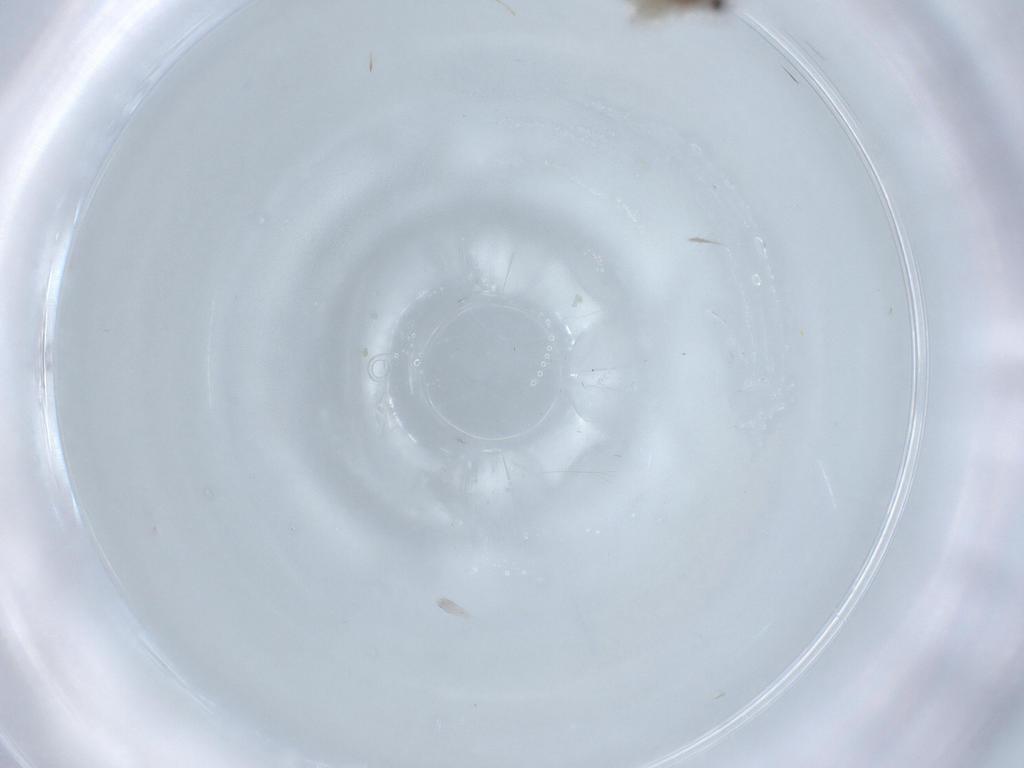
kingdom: Animalia
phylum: Arthropoda
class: Insecta
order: Diptera
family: Cecidomyiidae
